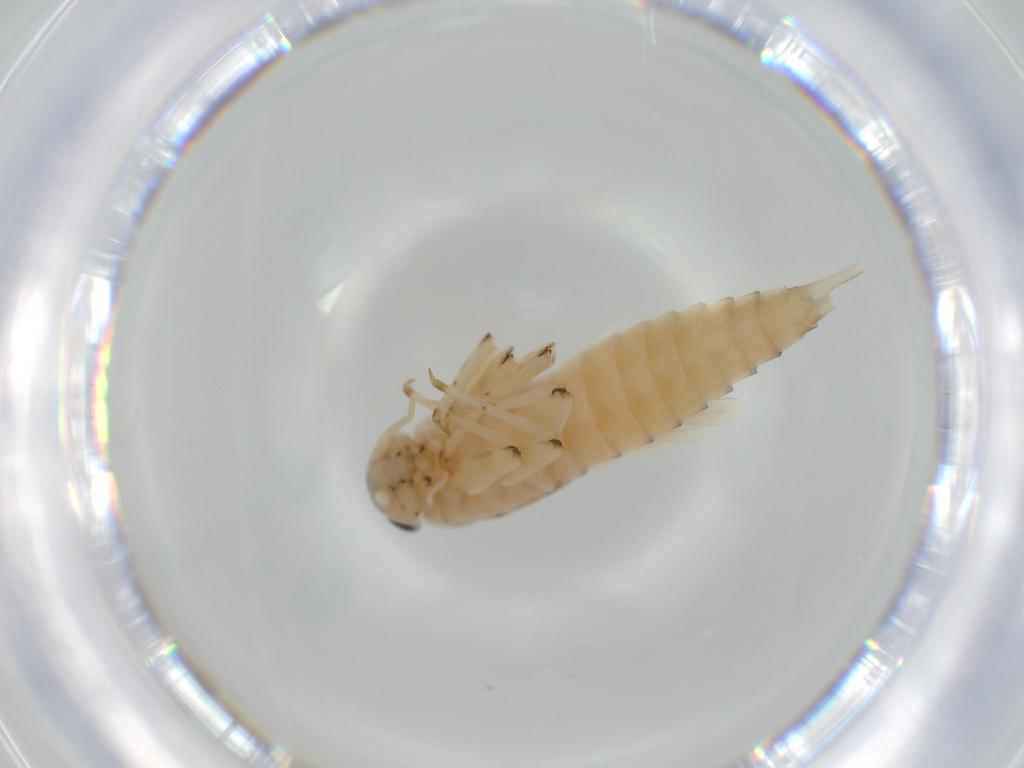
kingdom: Animalia
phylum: Arthropoda
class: Insecta
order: Ephemeroptera
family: Baetidae
